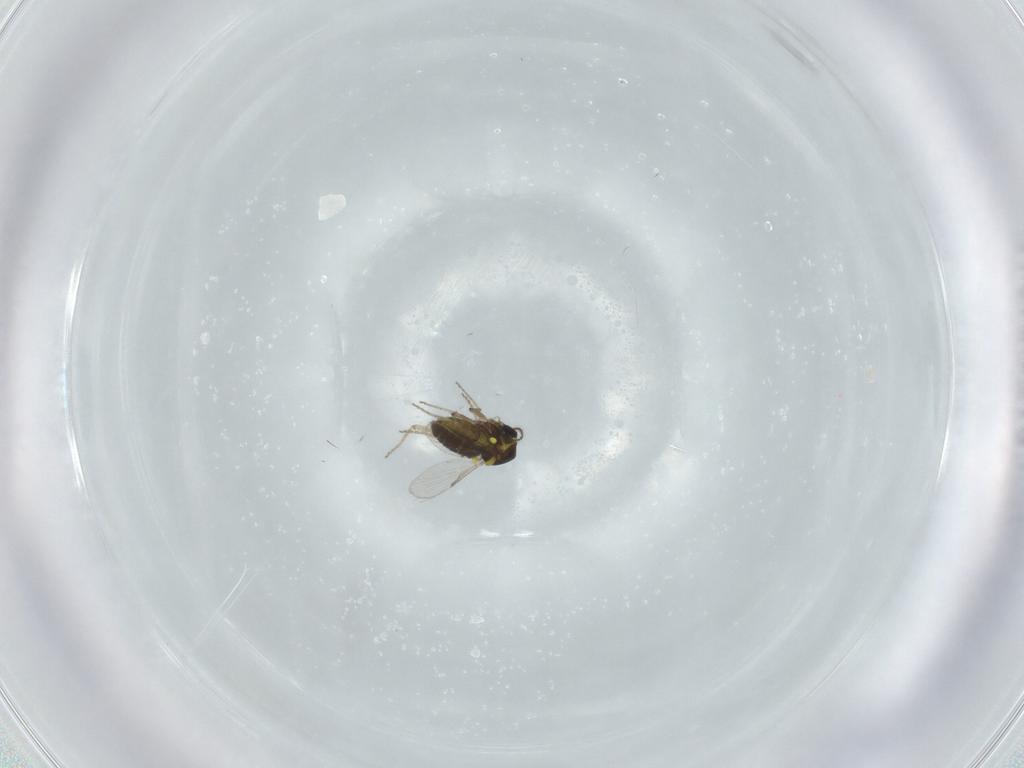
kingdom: Animalia
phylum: Arthropoda
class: Insecta
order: Diptera
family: Ceratopogonidae
